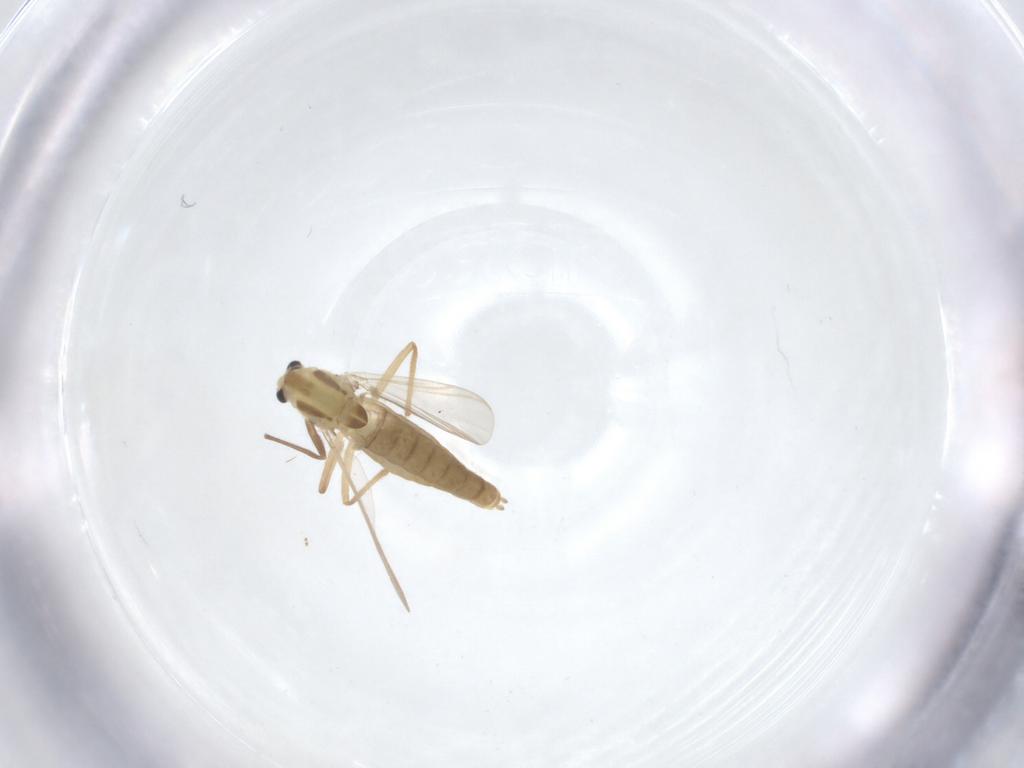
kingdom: Animalia
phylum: Arthropoda
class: Insecta
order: Diptera
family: Chironomidae
